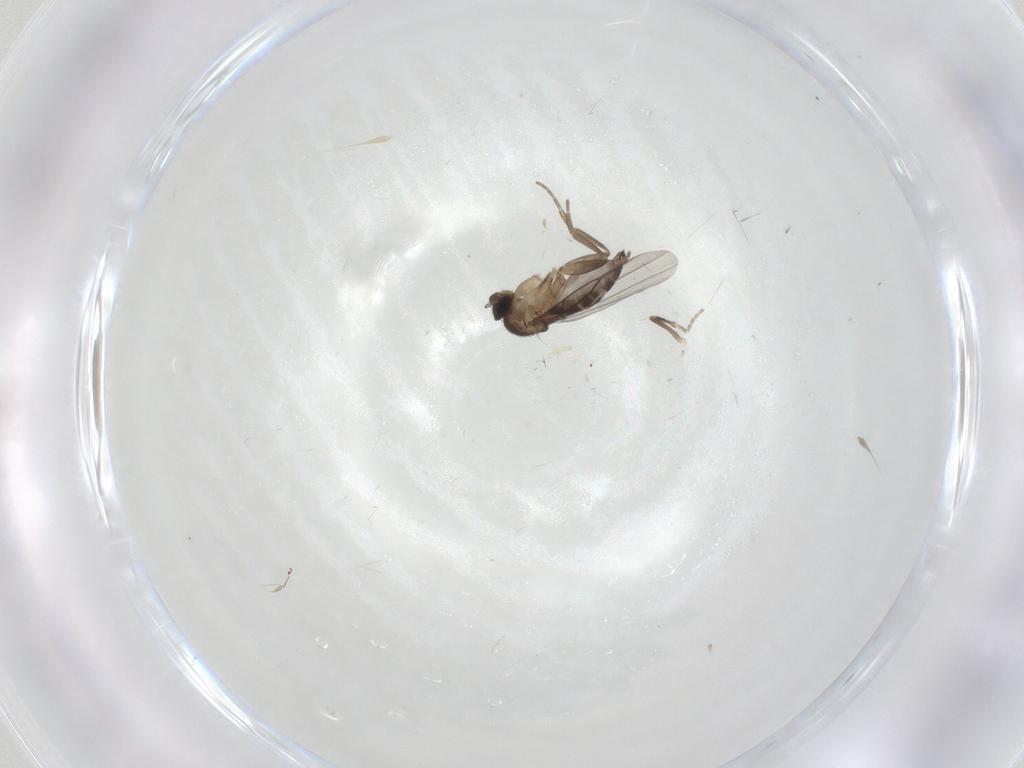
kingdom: Animalia
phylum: Arthropoda
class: Insecta
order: Diptera
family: Phoridae
